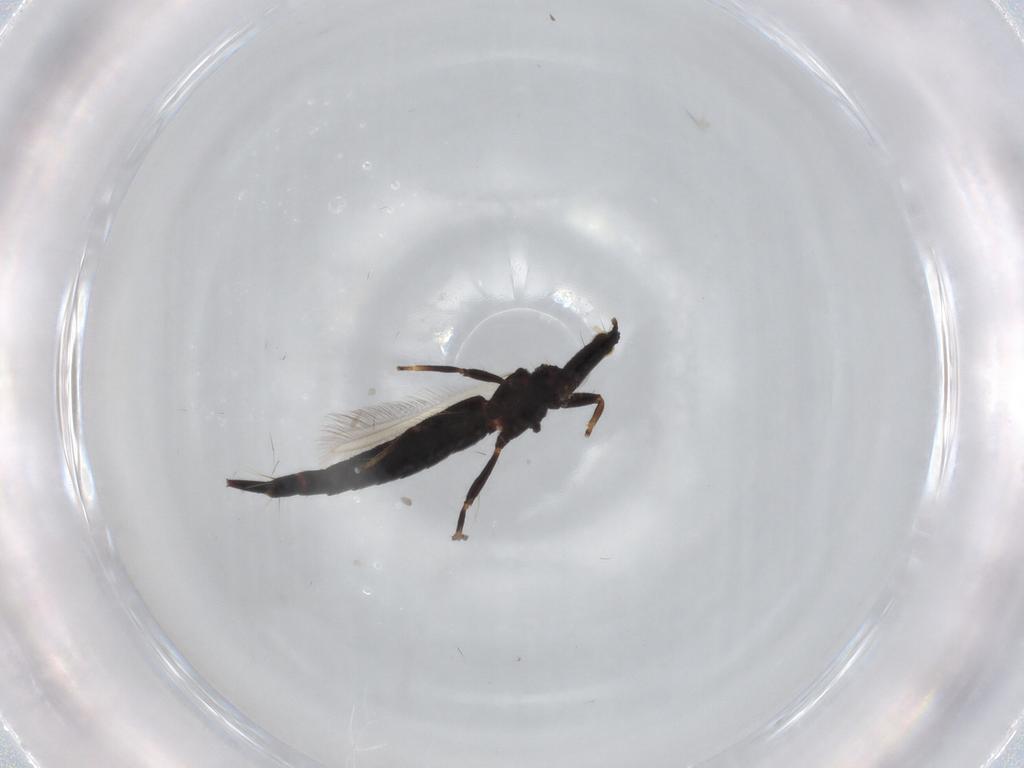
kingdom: Animalia
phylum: Arthropoda
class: Insecta
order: Thysanoptera
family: Phlaeothripidae
